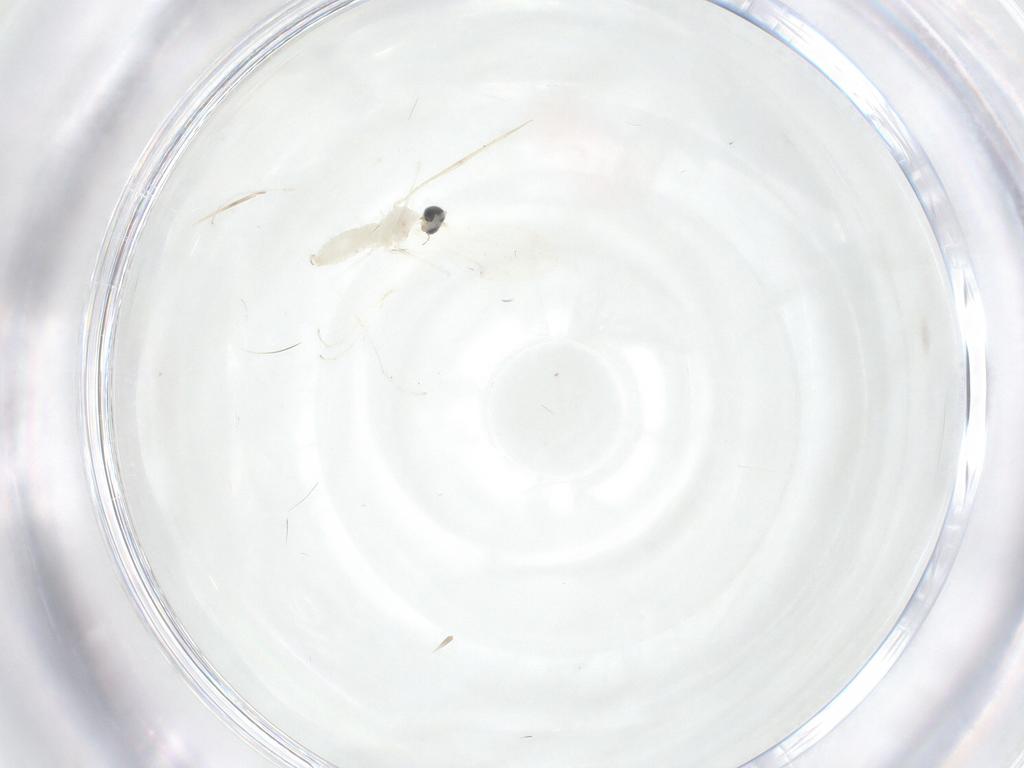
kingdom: Animalia
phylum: Arthropoda
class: Insecta
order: Diptera
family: Cecidomyiidae
